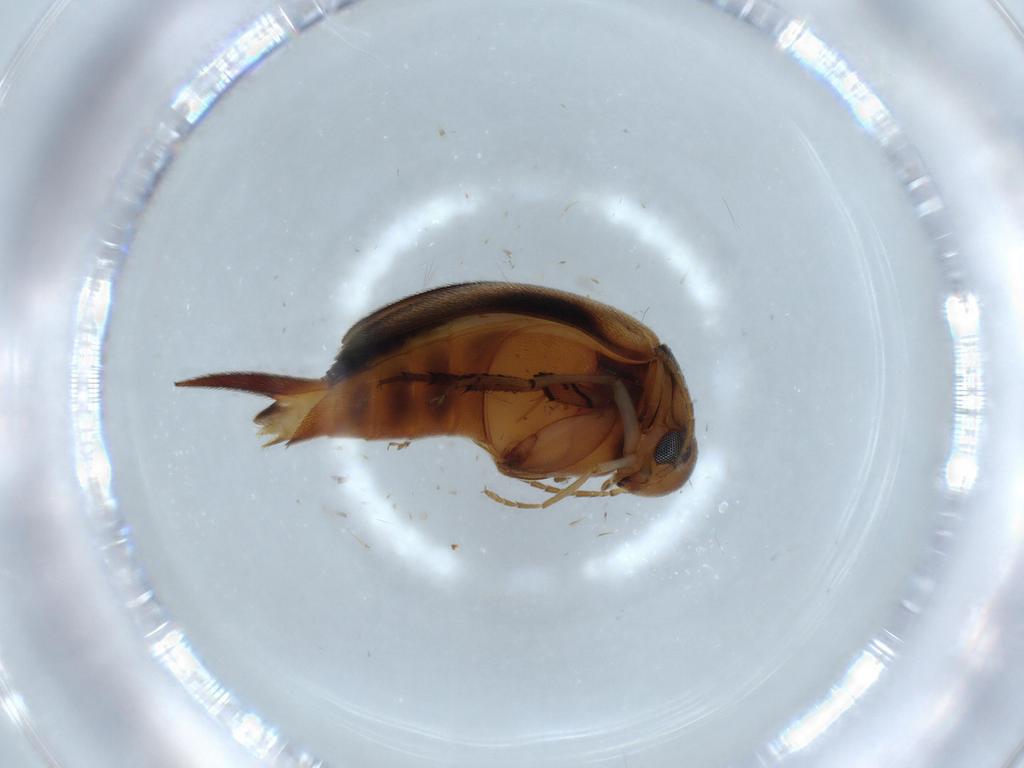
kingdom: Animalia
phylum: Arthropoda
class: Insecta
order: Coleoptera
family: Mordellidae
